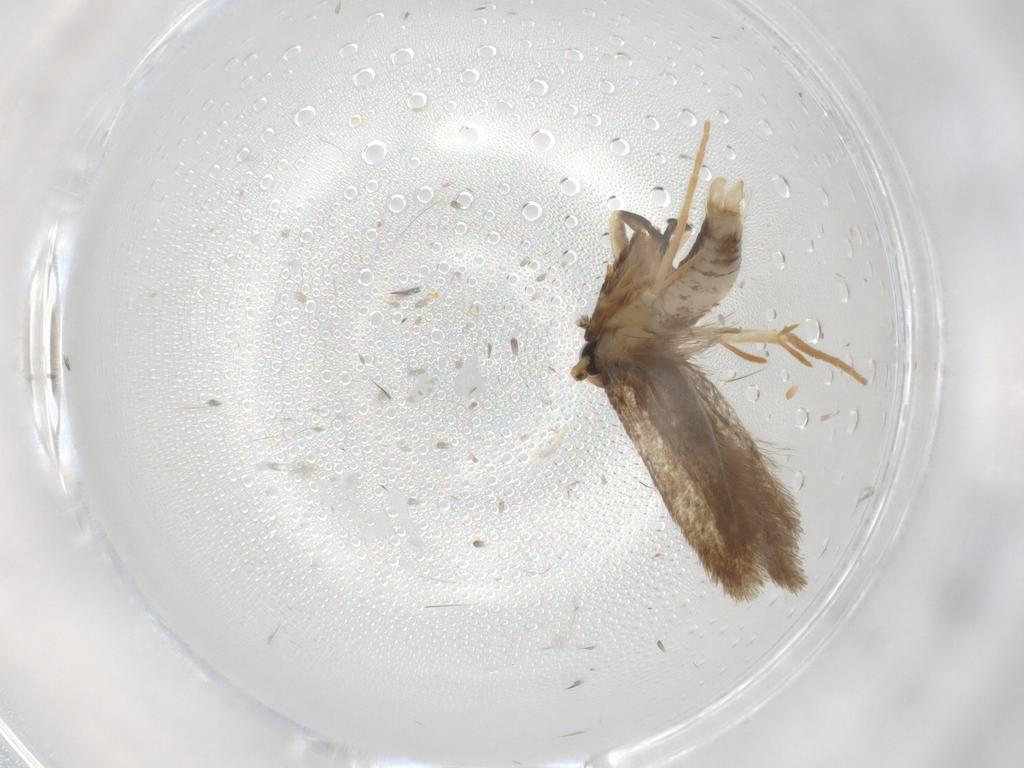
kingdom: Animalia
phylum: Arthropoda
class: Insecta
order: Lepidoptera
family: Coleophoridae
